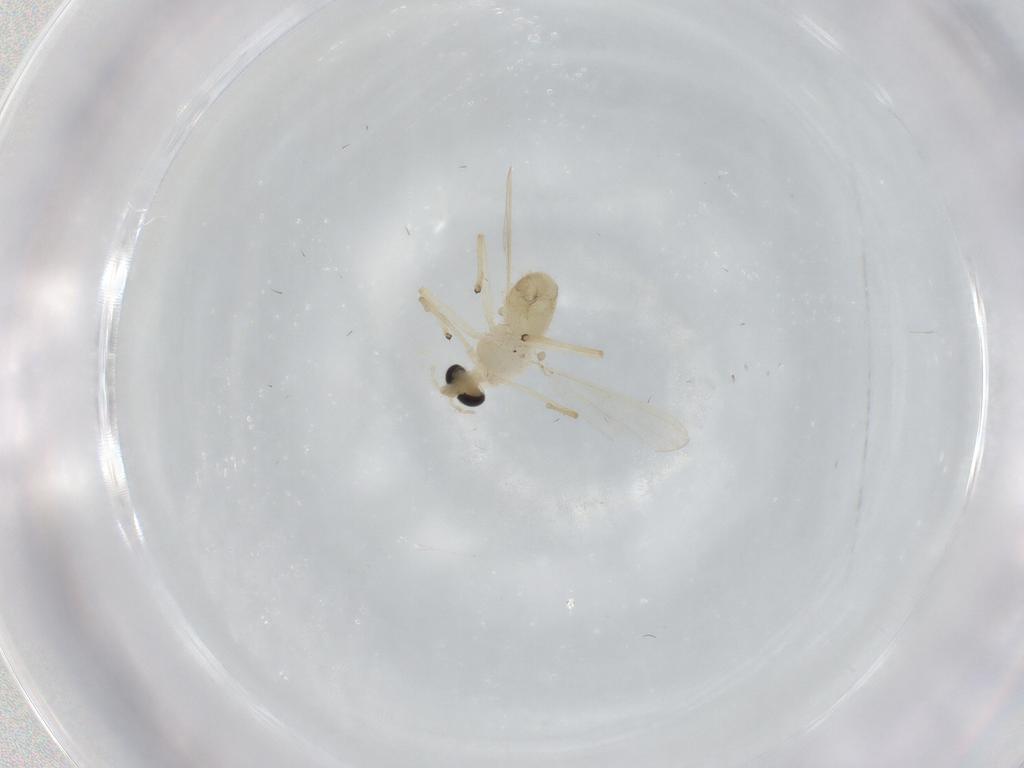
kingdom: Animalia
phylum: Arthropoda
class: Insecta
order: Diptera
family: Chironomidae
